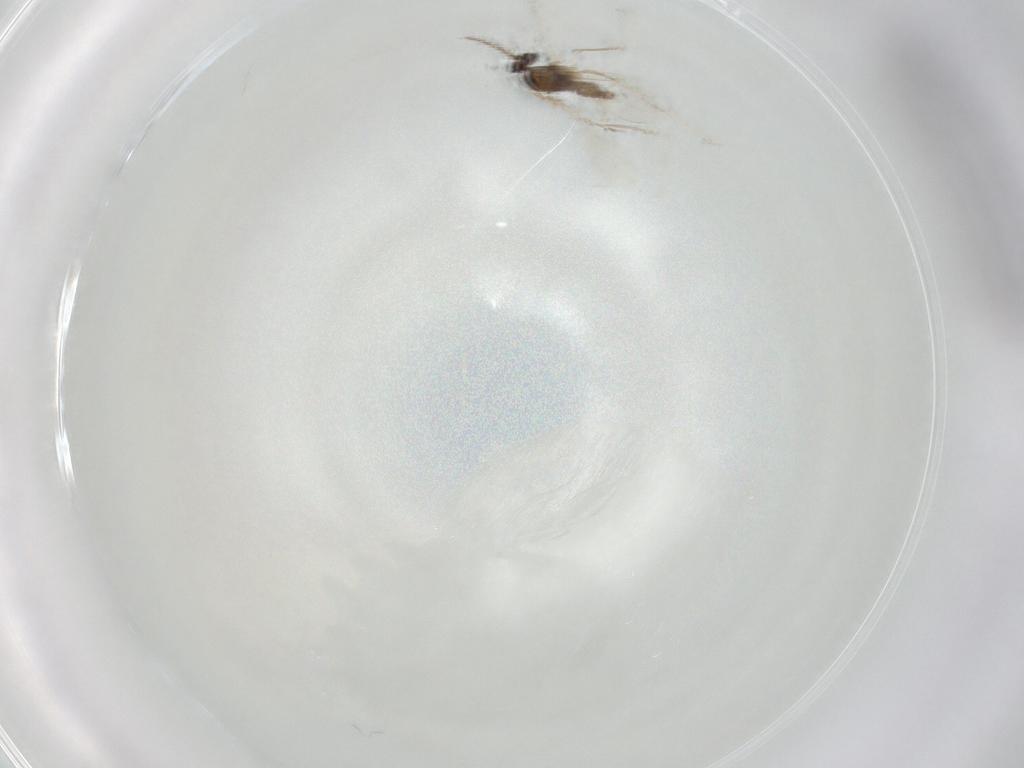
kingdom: Animalia
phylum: Arthropoda
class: Insecta
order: Diptera
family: Cecidomyiidae
